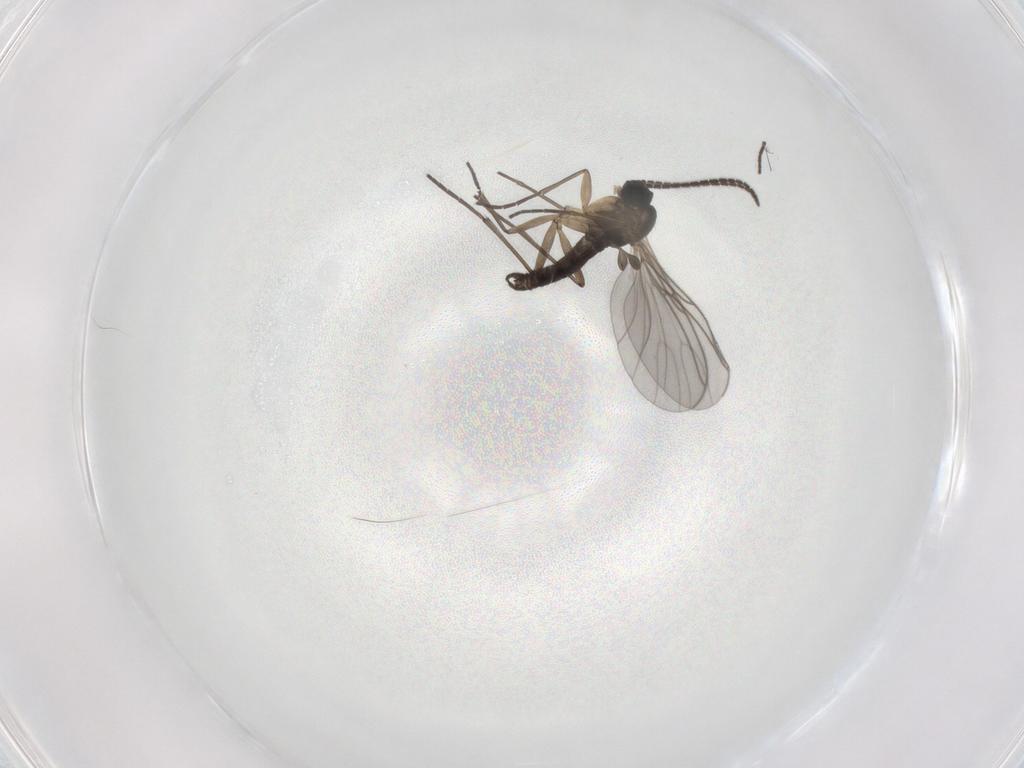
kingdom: Animalia
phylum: Arthropoda
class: Insecta
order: Diptera
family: Sciaridae
